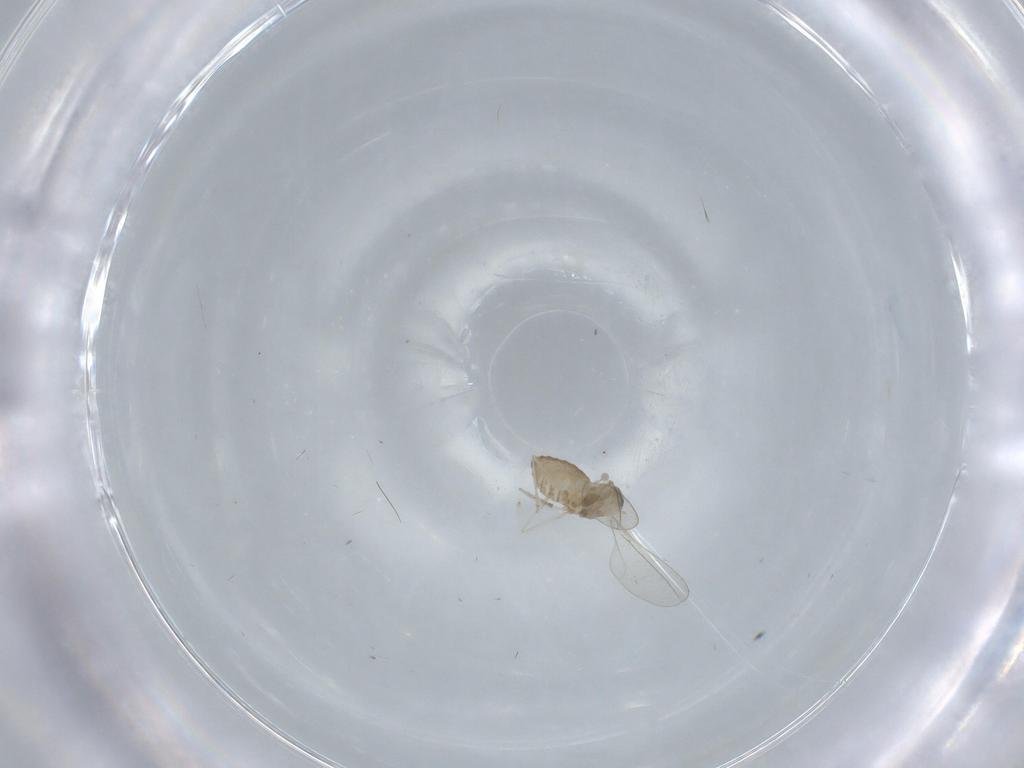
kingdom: Animalia
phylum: Arthropoda
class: Insecta
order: Diptera
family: Cecidomyiidae
